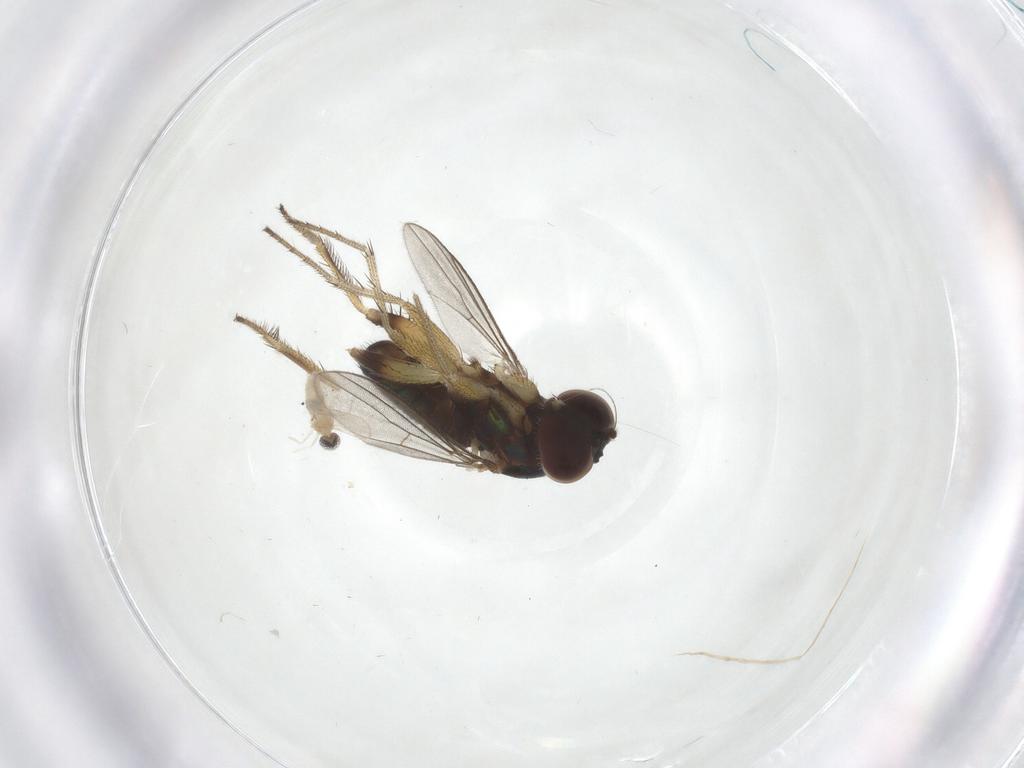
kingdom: Animalia
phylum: Arthropoda
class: Insecta
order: Diptera
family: Cecidomyiidae
